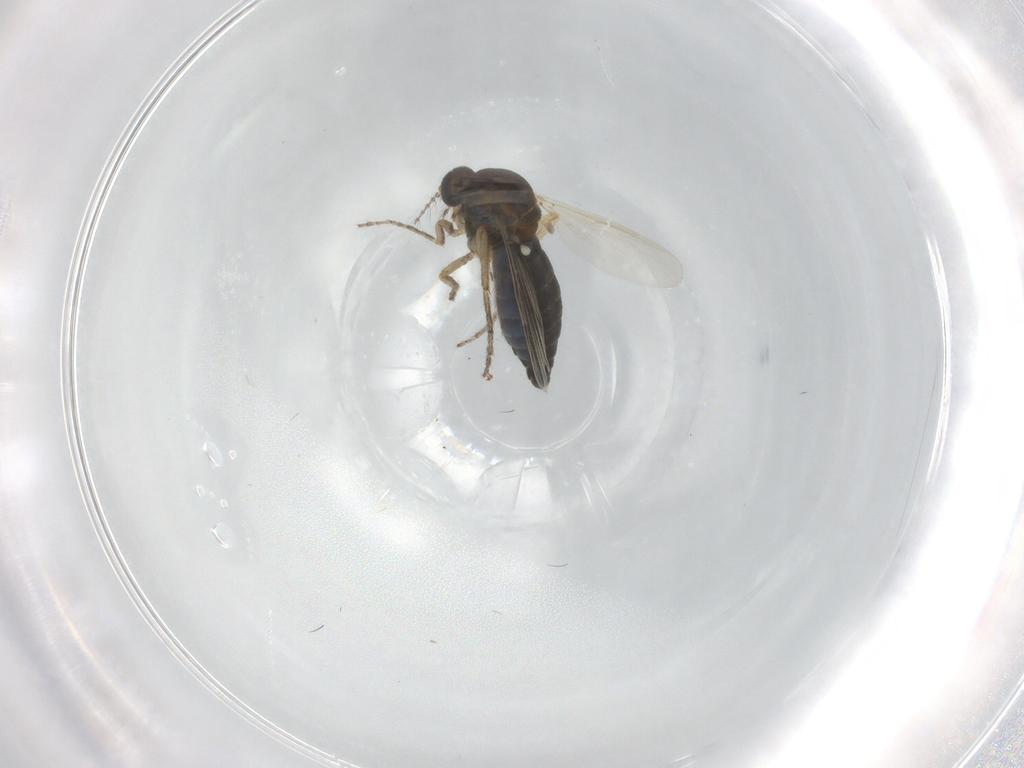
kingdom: Animalia
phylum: Arthropoda
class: Insecta
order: Diptera
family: Ceratopogonidae
